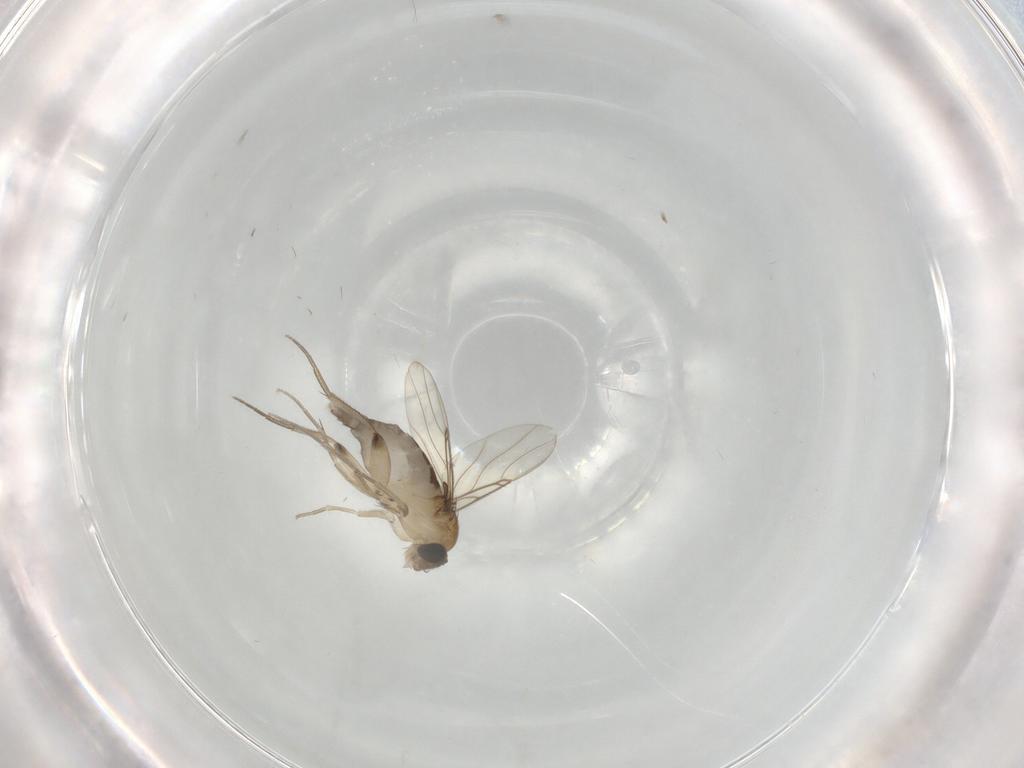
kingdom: Animalia
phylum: Arthropoda
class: Insecta
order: Diptera
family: Phoridae
